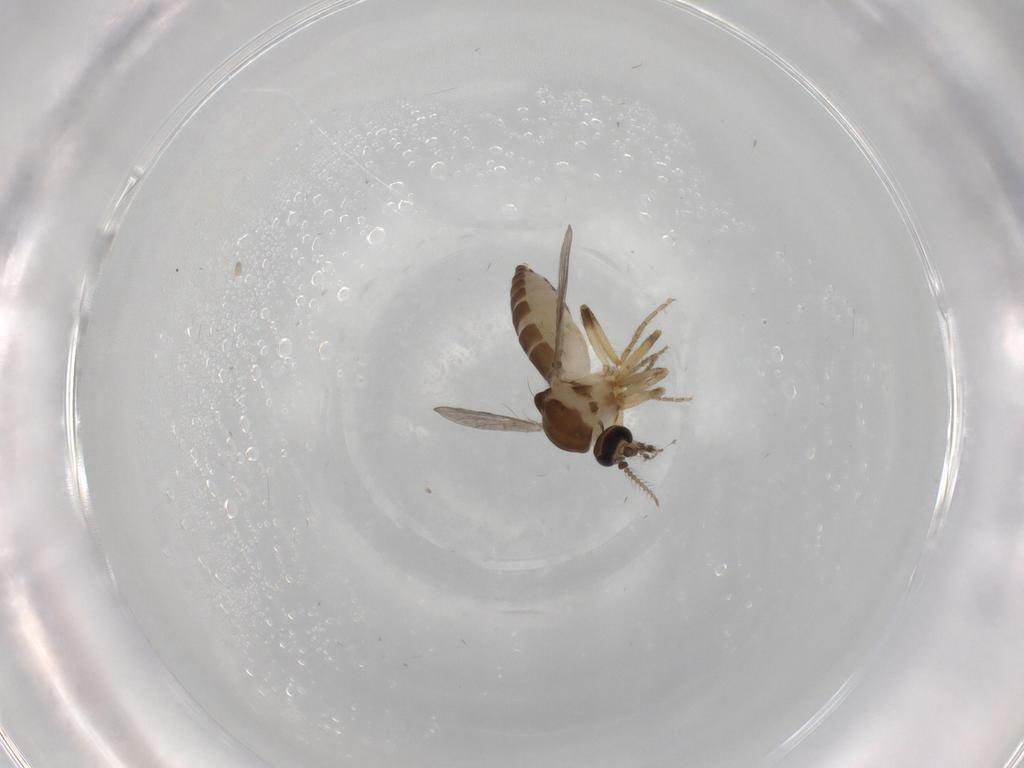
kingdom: Animalia
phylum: Arthropoda
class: Insecta
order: Diptera
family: Ceratopogonidae
